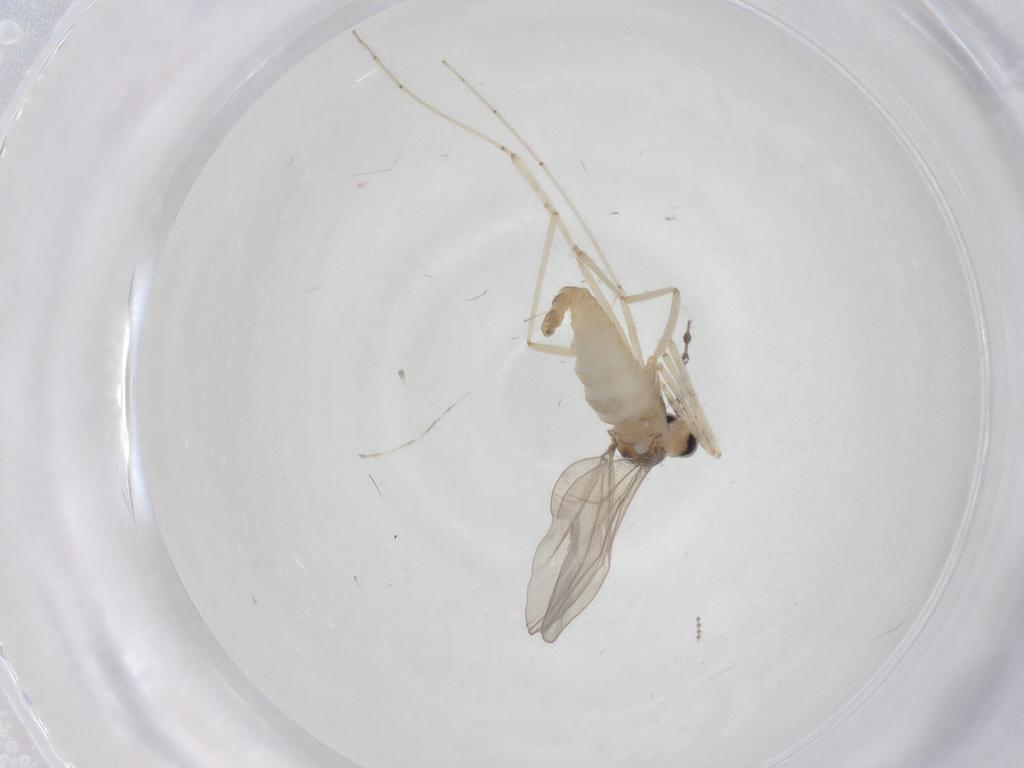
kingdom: Animalia
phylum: Arthropoda
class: Insecta
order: Diptera
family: Cecidomyiidae
